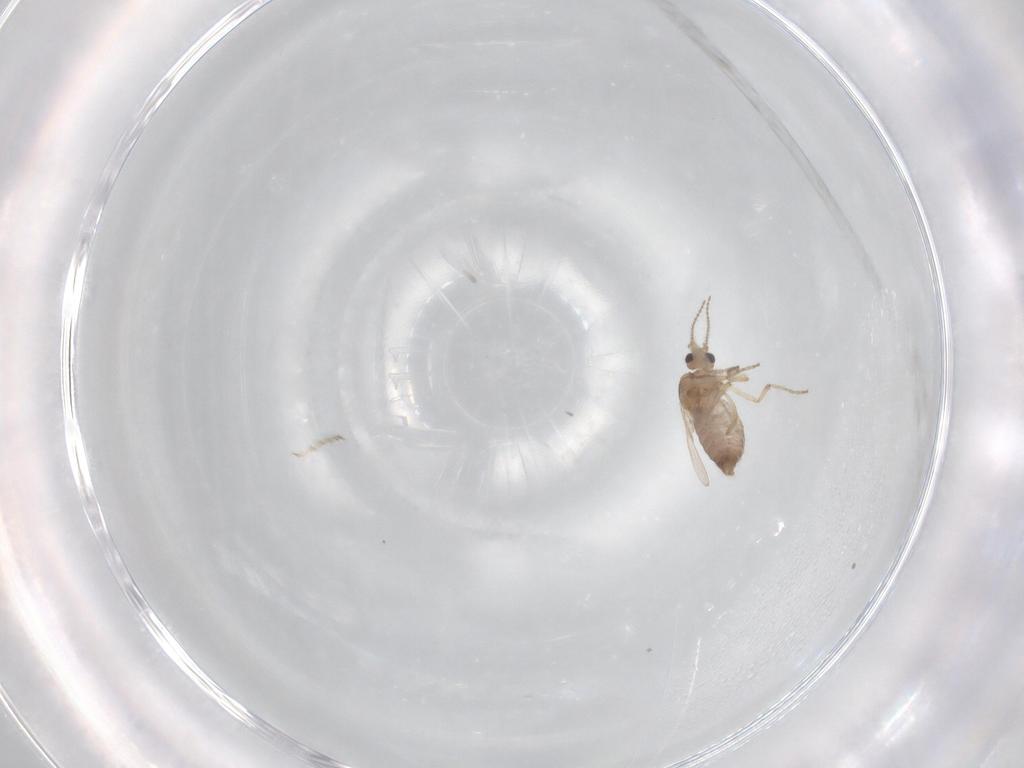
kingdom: Animalia
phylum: Arthropoda
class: Insecta
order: Diptera
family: Ceratopogonidae
